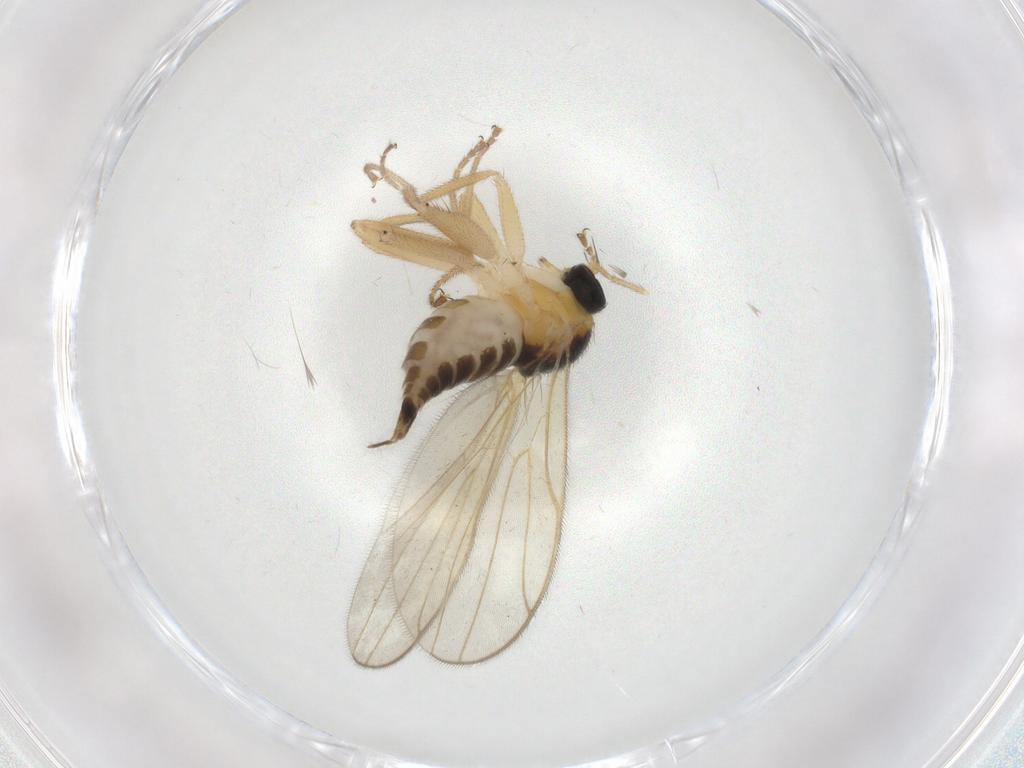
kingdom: Animalia
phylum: Arthropoda
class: Insecta
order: Diptera
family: Hybotidae
